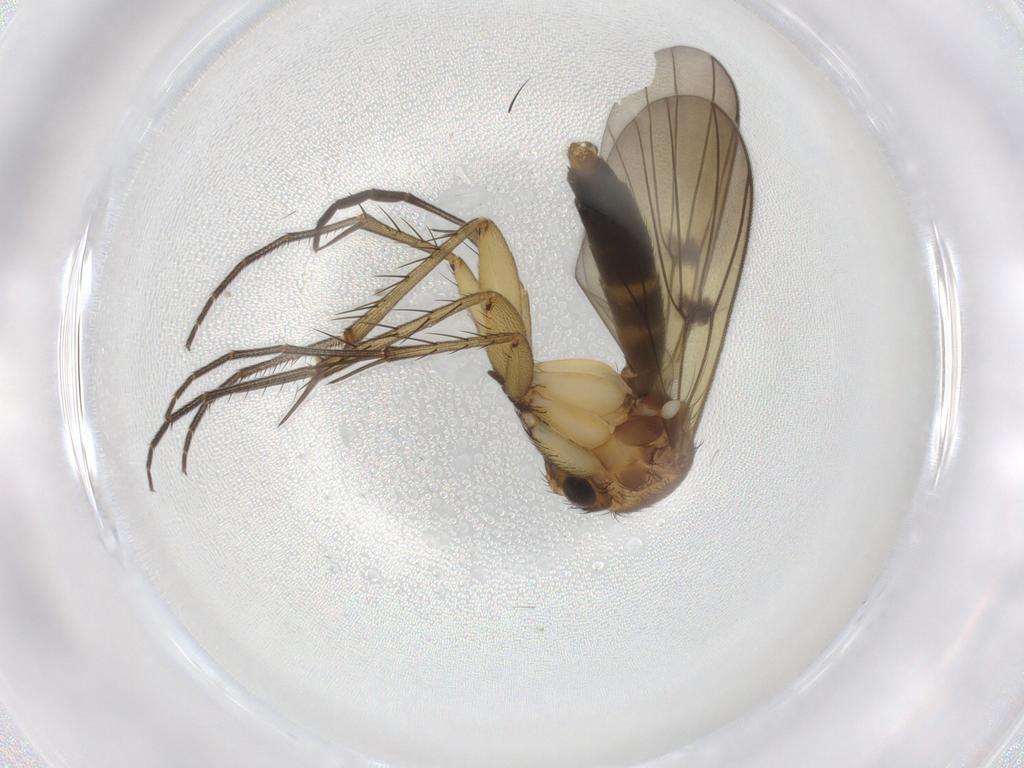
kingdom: Animalia
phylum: Arthropoda
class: Insecta
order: Diptera
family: Cecidomyiidae
